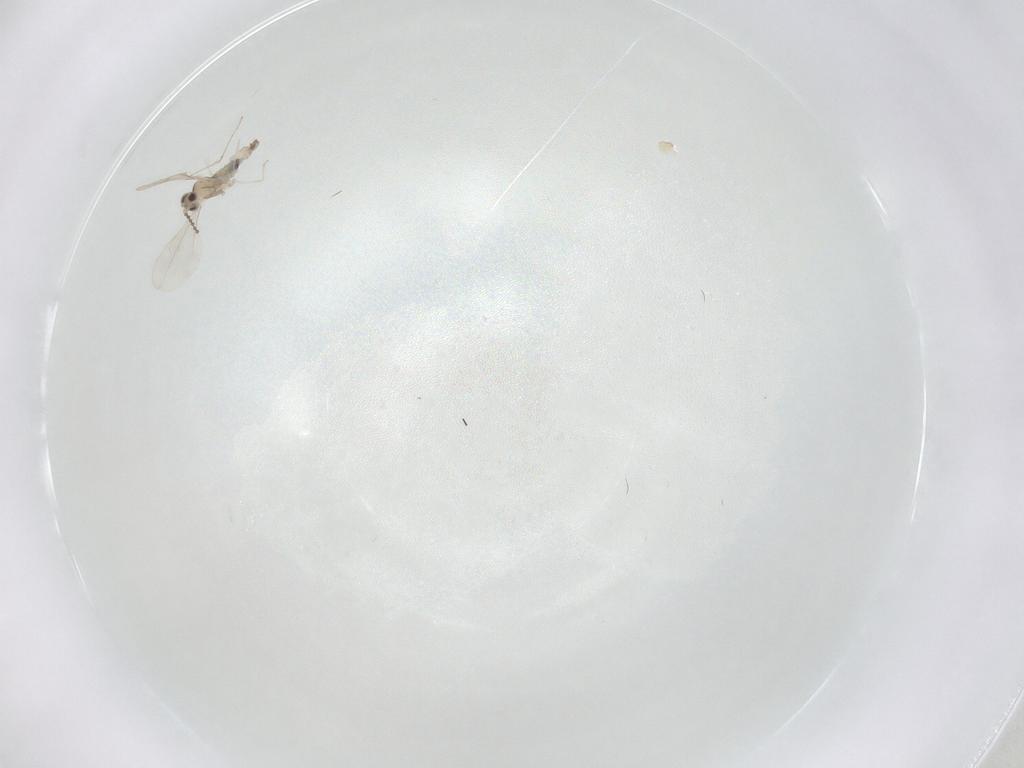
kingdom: Animalia
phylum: Arthropoda
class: Insecta
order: Diptera
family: Cecidomyiidae
